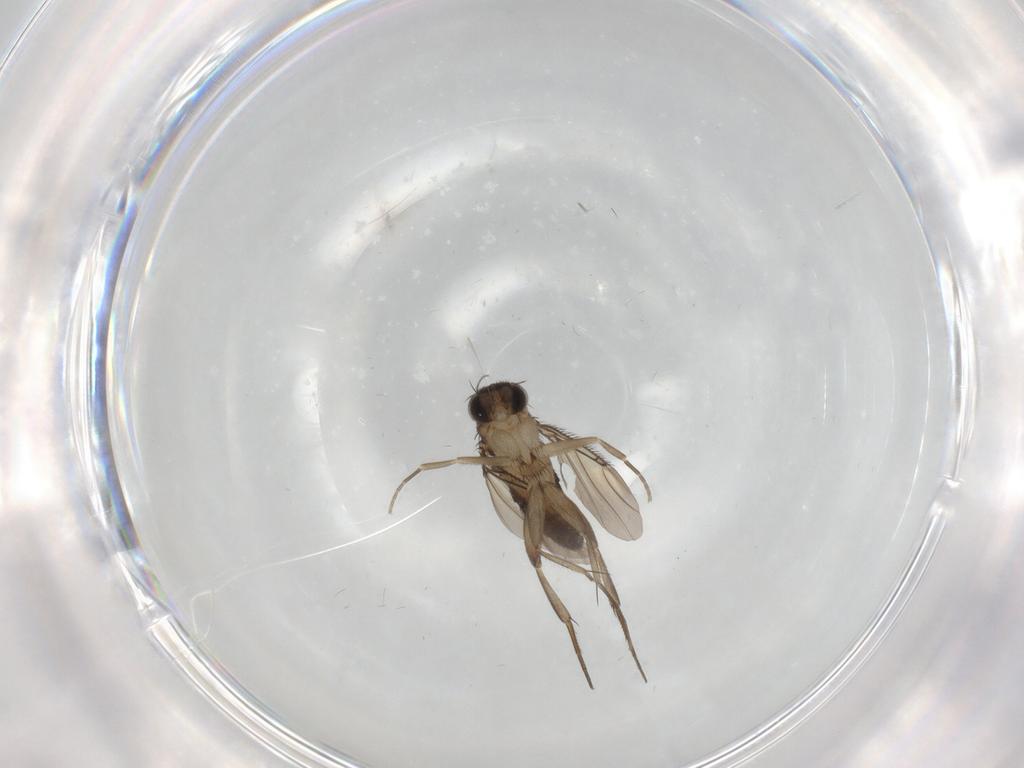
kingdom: Animalia
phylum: Arthropoda
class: Insecta
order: Diptera
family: Phoridae
